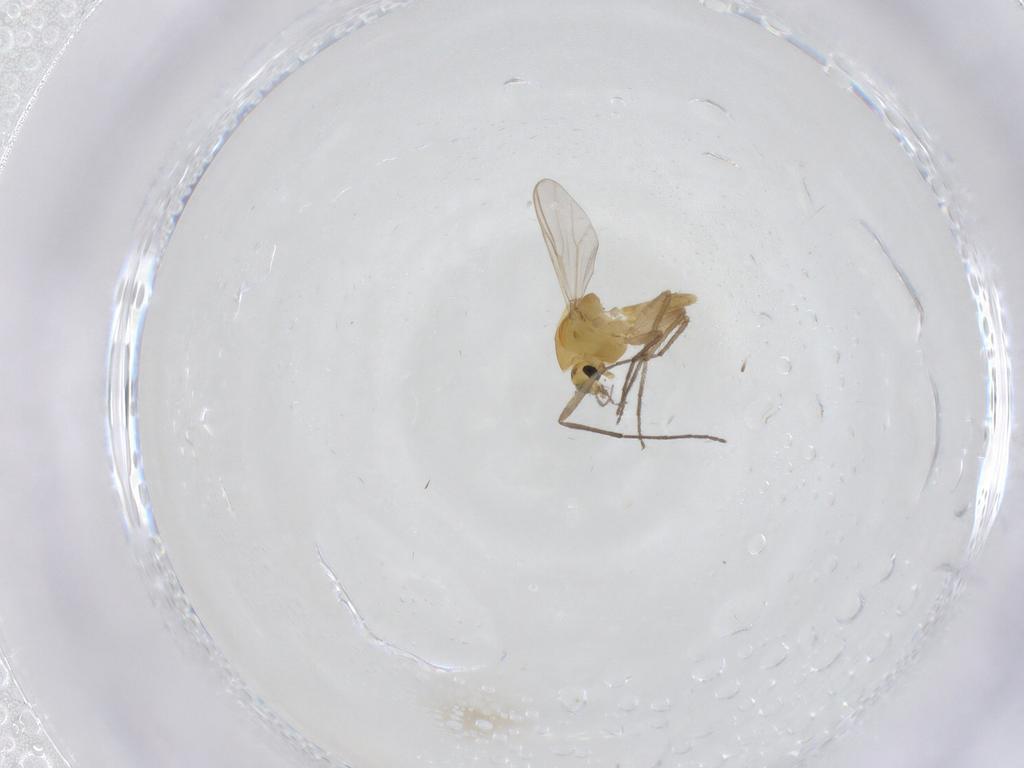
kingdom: Animalia
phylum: Arthropoda
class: Insecta
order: Diptera
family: Chironomidae
